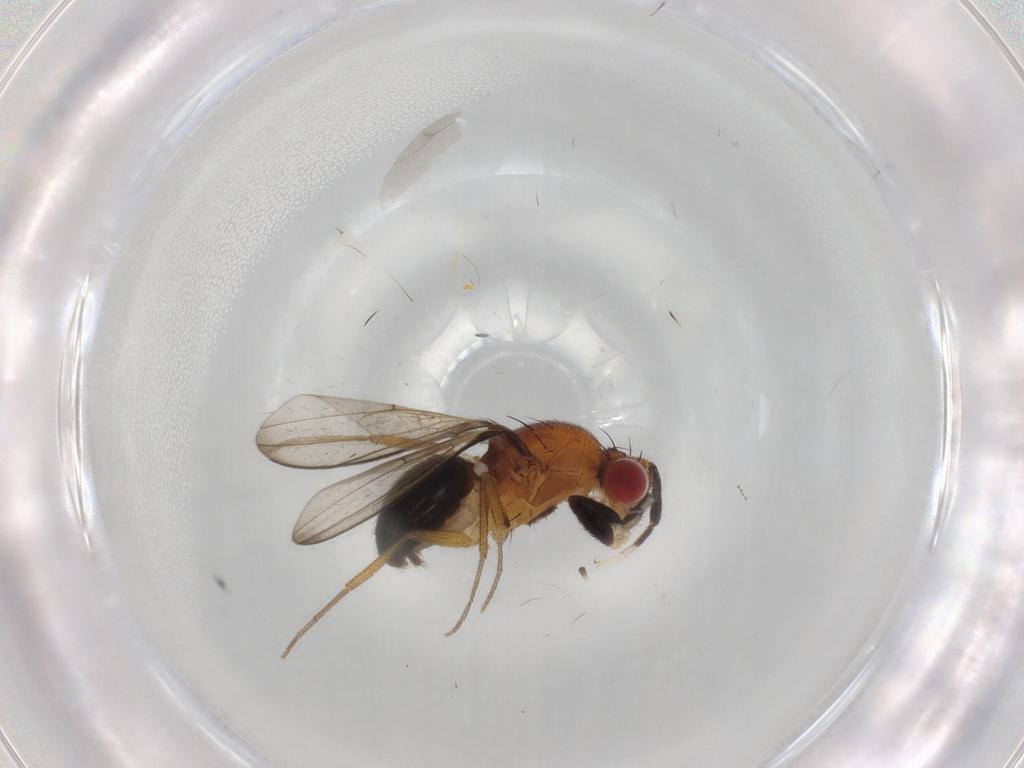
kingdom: Animalia
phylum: Arthropoda
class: Insecta
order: Diptera
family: Drosophilidae
